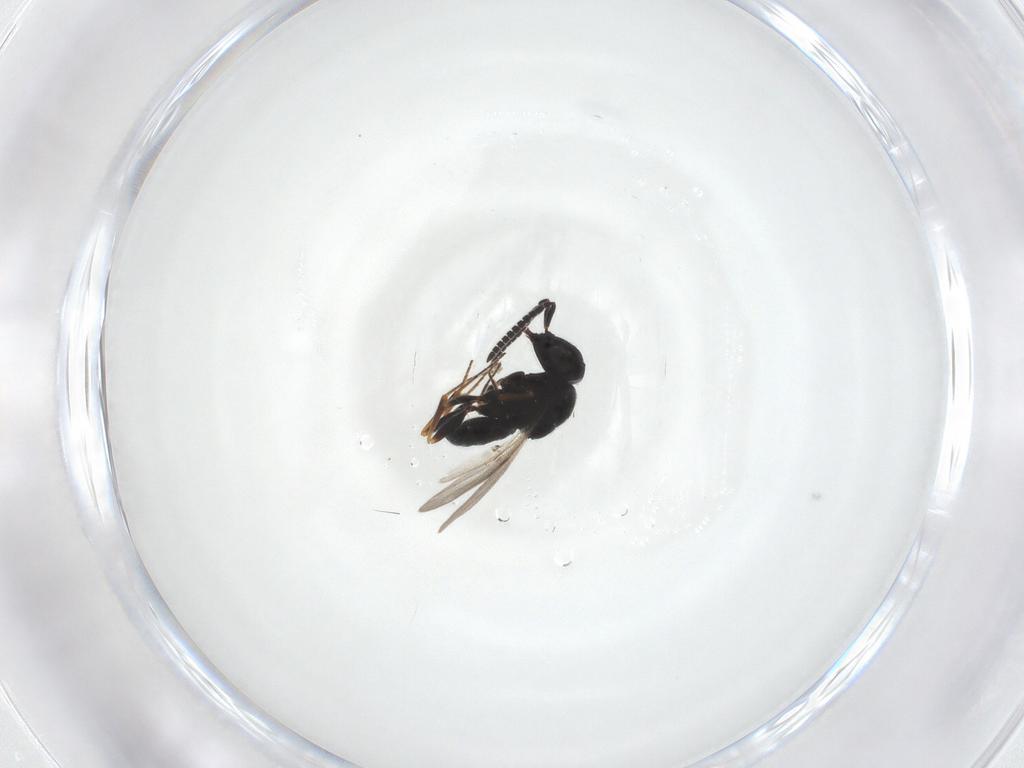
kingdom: Animalia
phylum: Arthropoda
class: Insecta
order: Hymenoptera
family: Scelionidae
